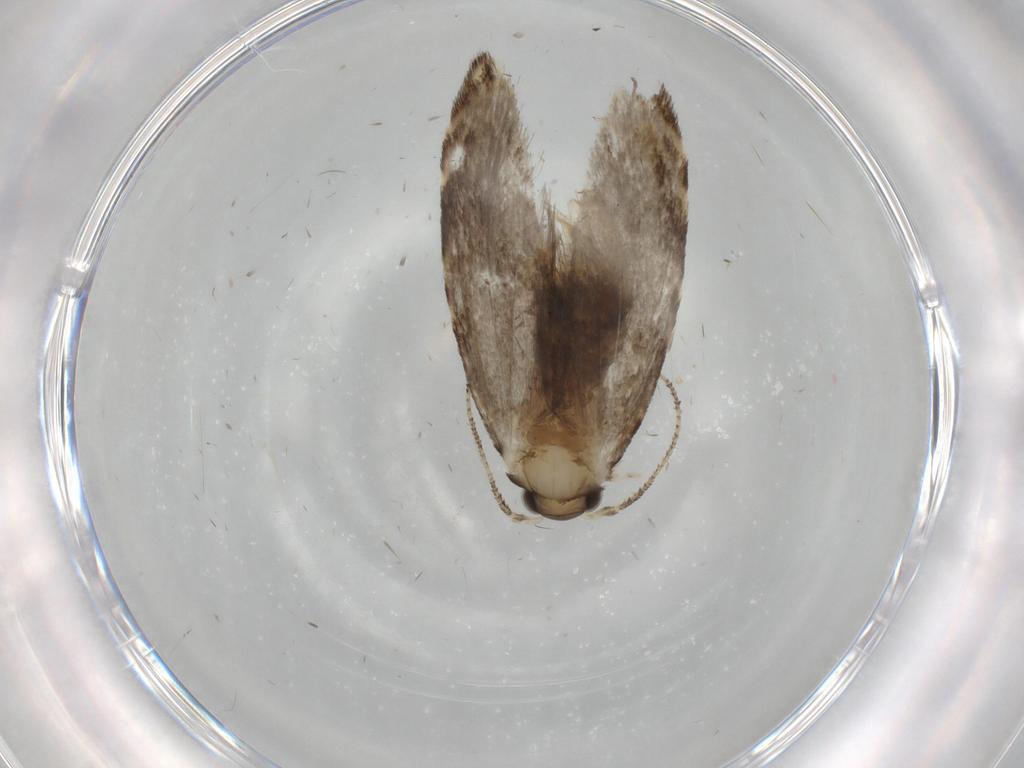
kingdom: Animalia
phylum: Arthropoda
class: Insecta
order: Lepidoptera
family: Tineidae
